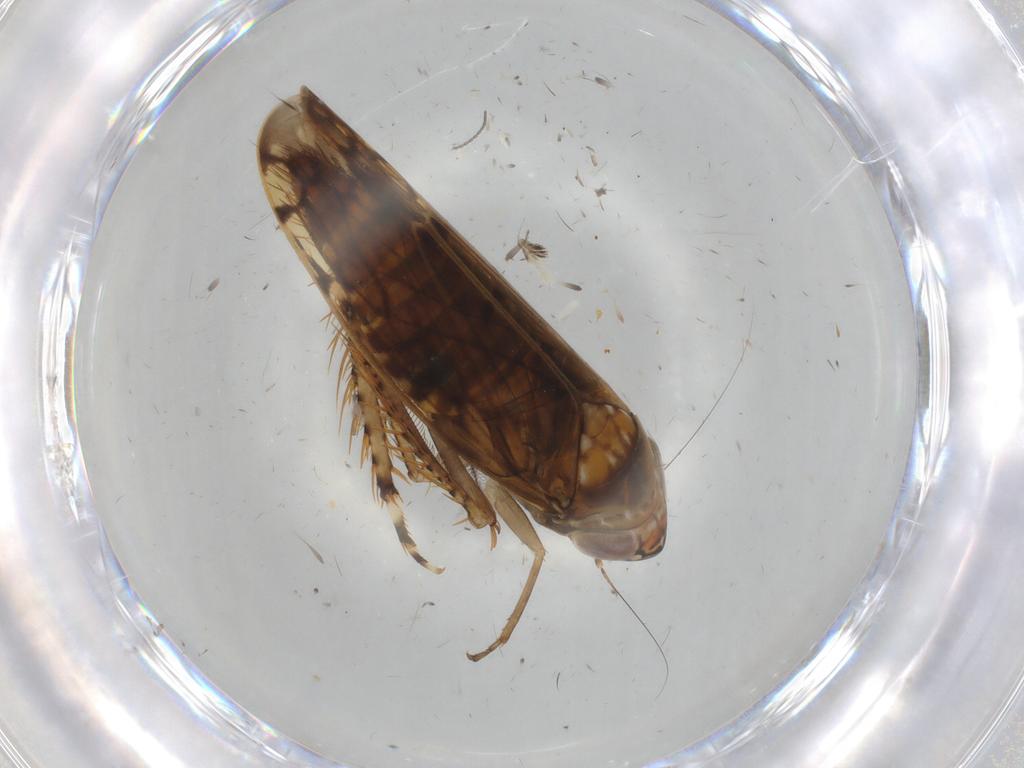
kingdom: Animalia
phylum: Arthropoda
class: Insecta
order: Hemiptera
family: Cicadellidae
